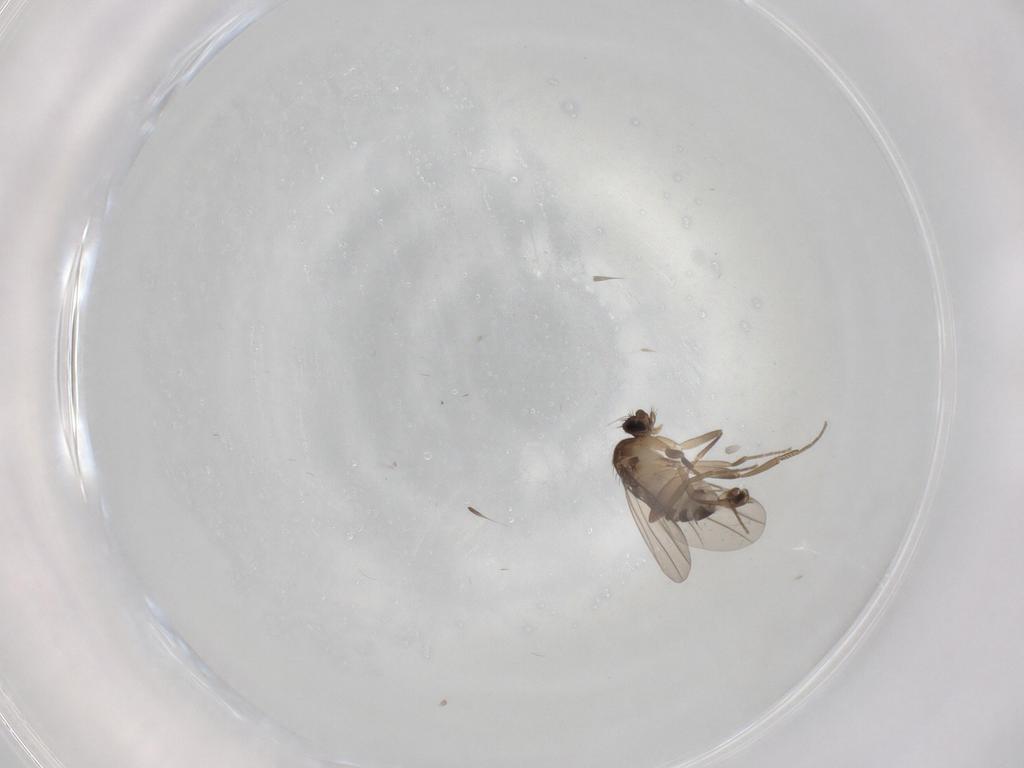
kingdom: Animalia
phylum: Arthropoda
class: Insecta
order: Diptera
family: Phoridae
